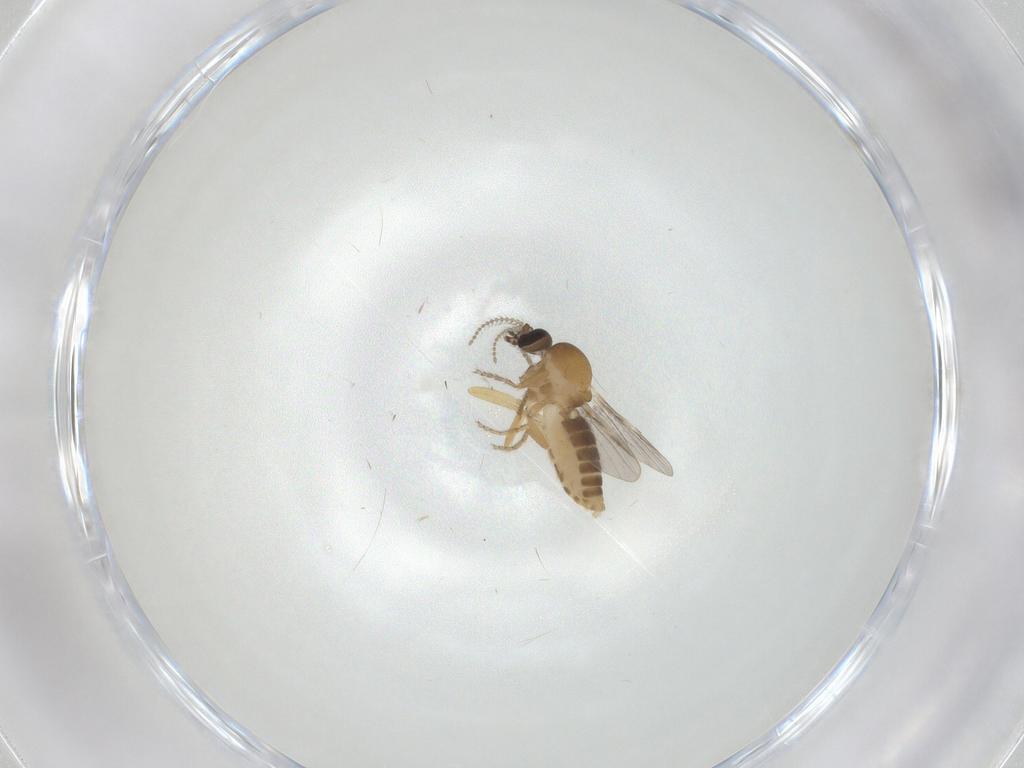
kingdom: Animalia
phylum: Arthropoda
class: Insecta
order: Diptera
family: Ceratopogonidae
